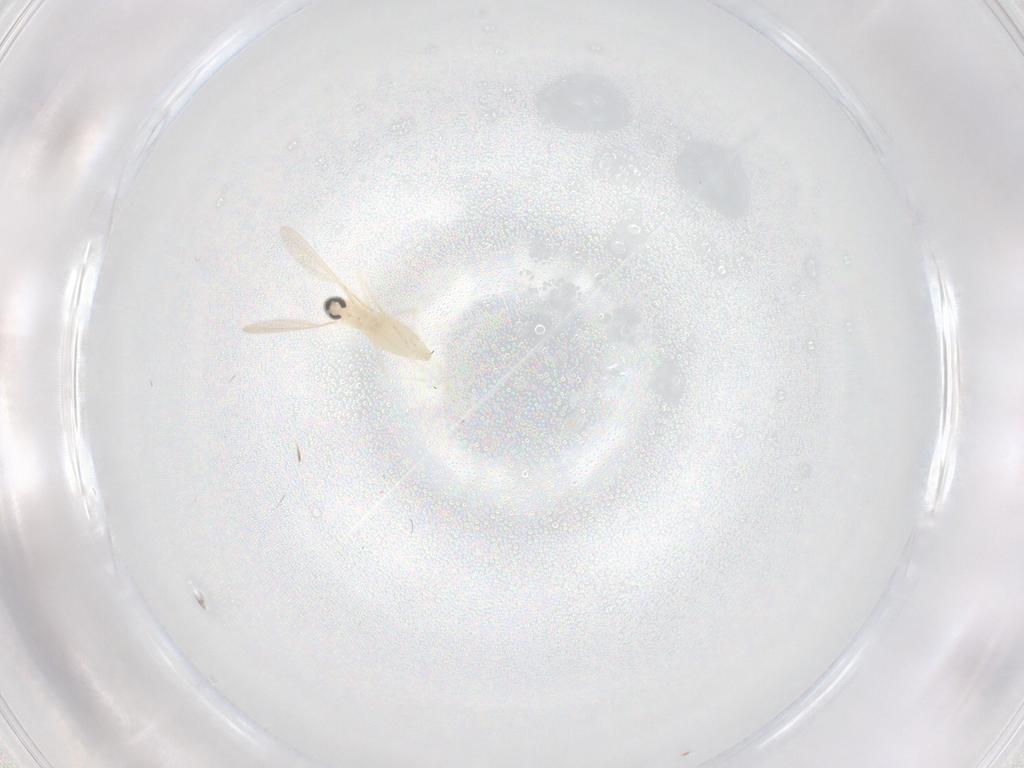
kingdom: Animalia
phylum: Arthropoda
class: Insecta
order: Diptera
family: Cecidomyiidae
